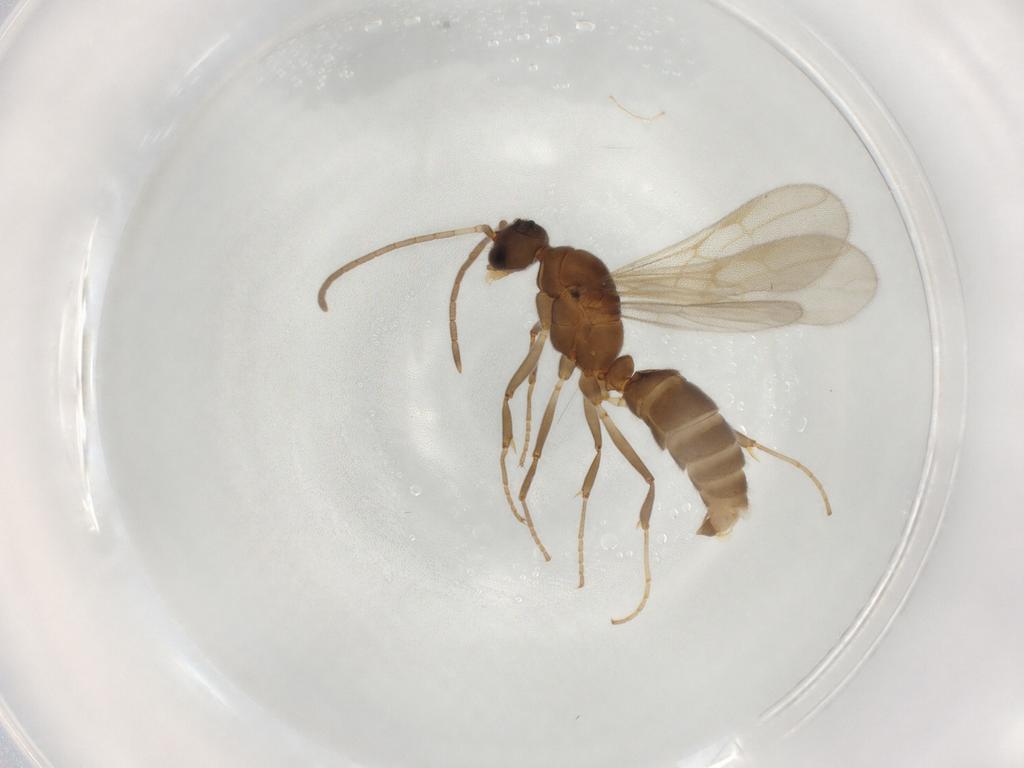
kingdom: Animalia
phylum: Arthropoda
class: Insecta
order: Hymenoptera
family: Formicidae
